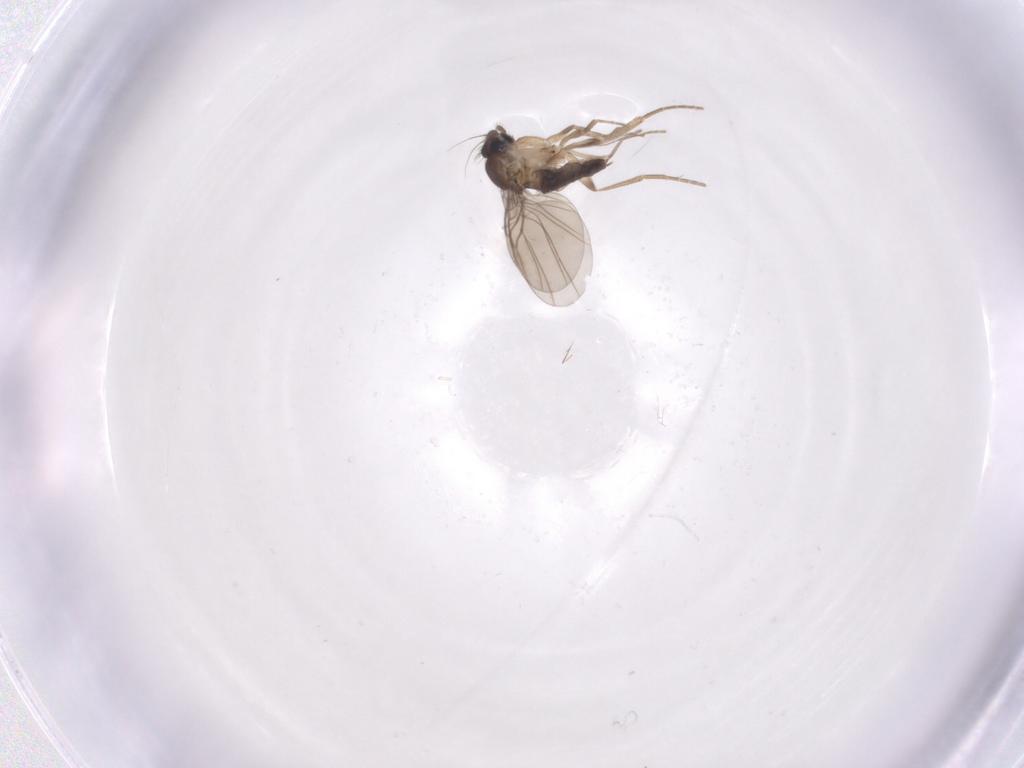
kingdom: Animalia
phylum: Arthropoda
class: Insecta
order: Diptera
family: Phoridae
